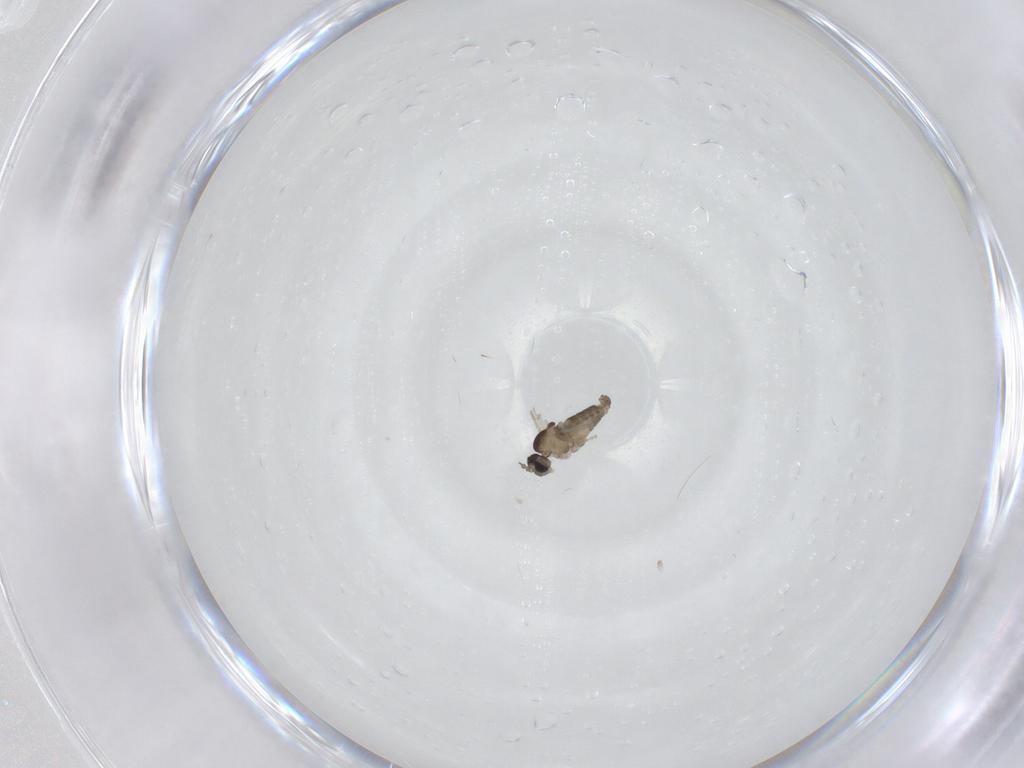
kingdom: Animalia
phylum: Arthropoda
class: Insecta
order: Diptera
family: Cecidomyiidae
